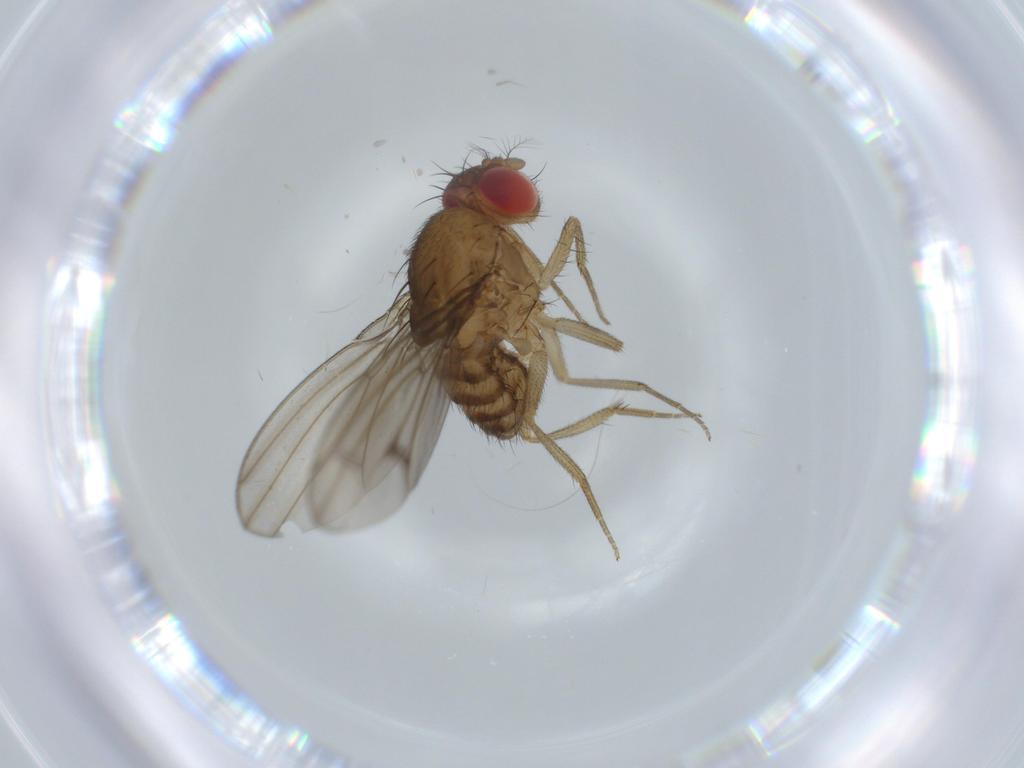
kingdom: Animalia
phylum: Arthropoda
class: Insecta
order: Diptera
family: Drosophilidae
